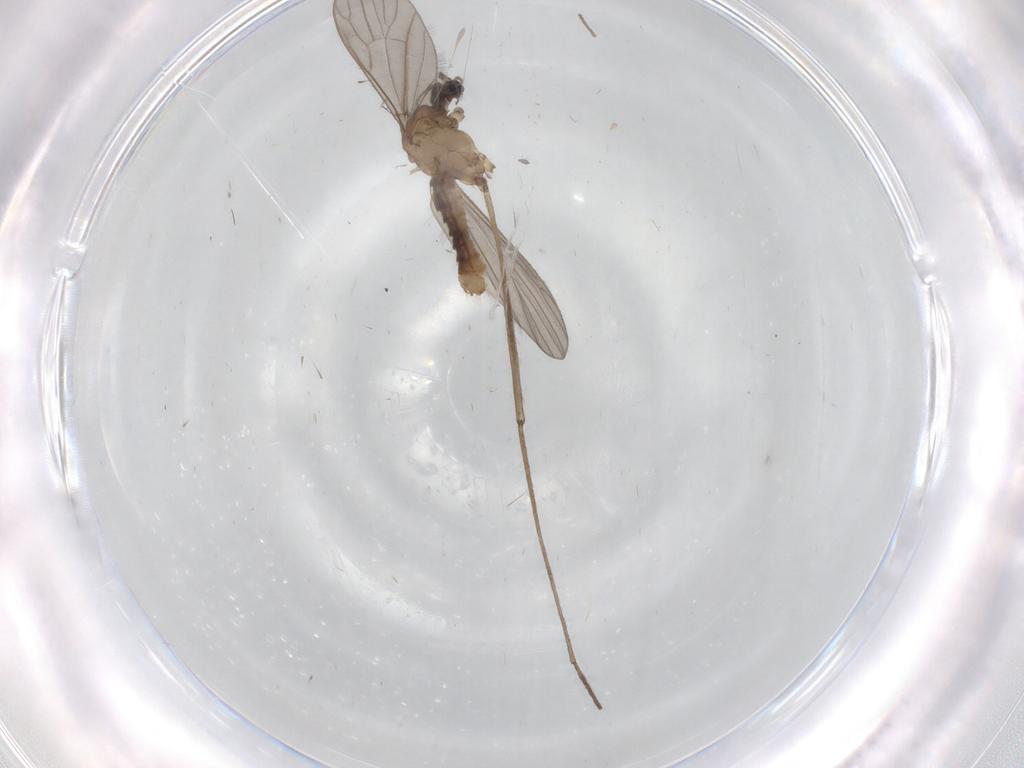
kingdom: Animalia
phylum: Arthropoda
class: Insecta
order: Diptera
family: Limoniidae
